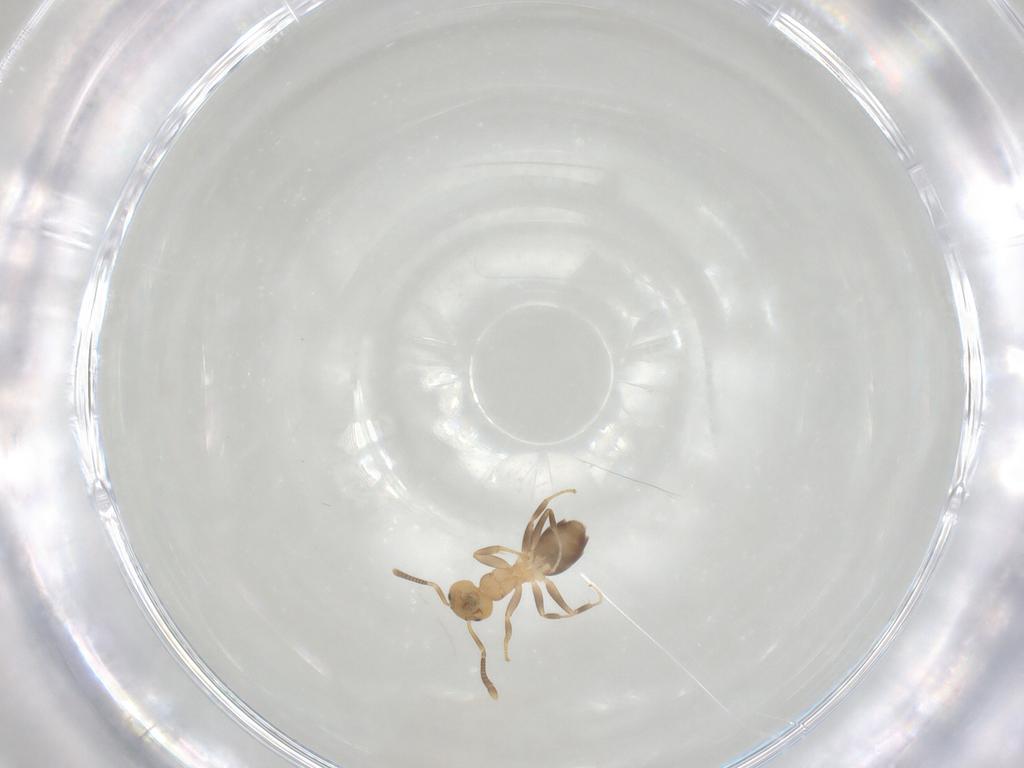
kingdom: Animalia
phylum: Arthropoda
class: Insecta
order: Hymenoptera
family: Formicidae
